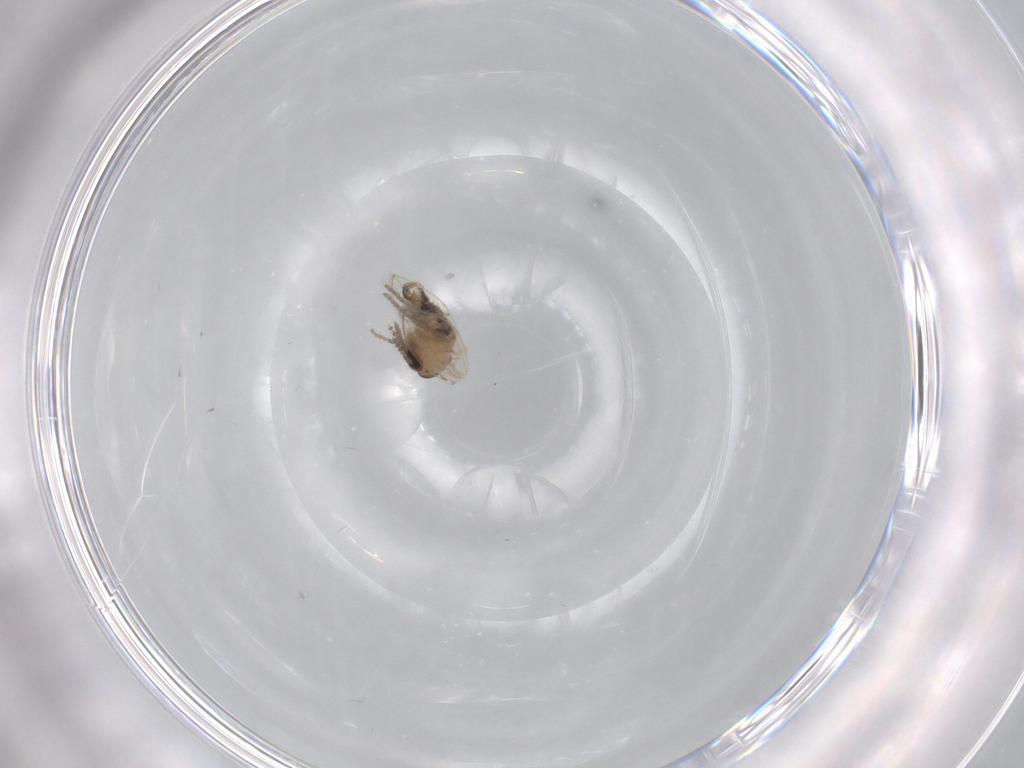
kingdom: Animalia
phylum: Arthropoda
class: Insecta
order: Diptera
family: Psychodidae
